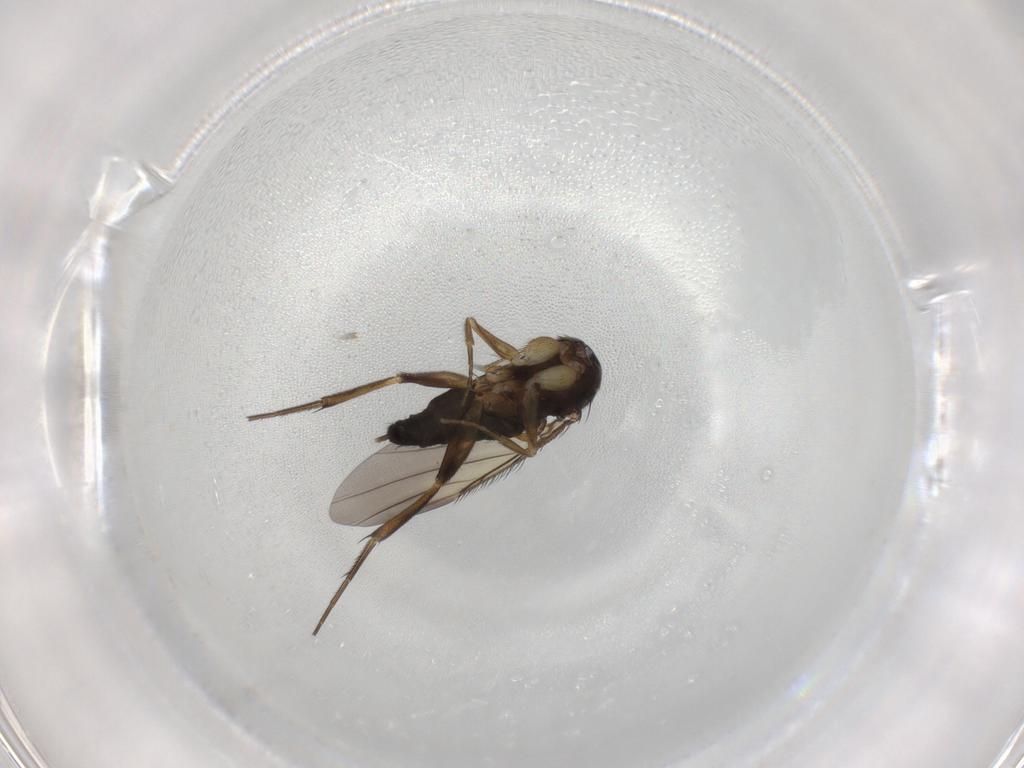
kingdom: Animalia
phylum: Arthropoda
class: Insecta
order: Diptera
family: Phoridae
